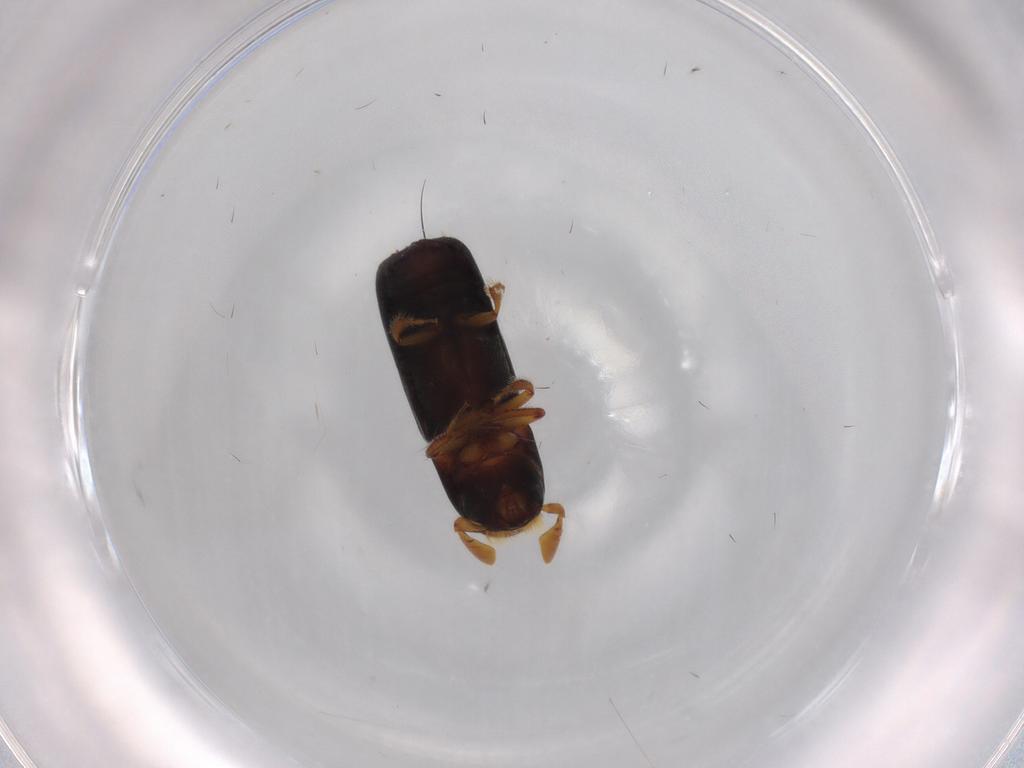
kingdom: Animalia
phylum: Arthropoda
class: Insecta
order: Coleoptera
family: Curculionidae
